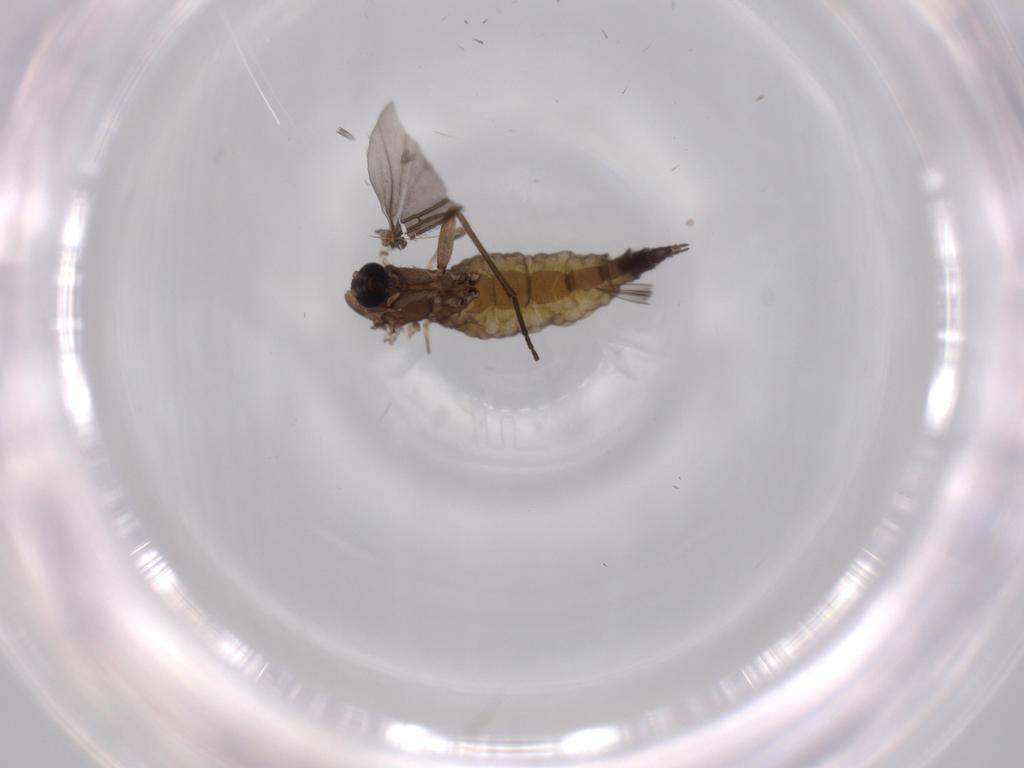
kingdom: Animalia
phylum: Arthropoda
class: Insecta
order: Diptera
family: Sciaridae
